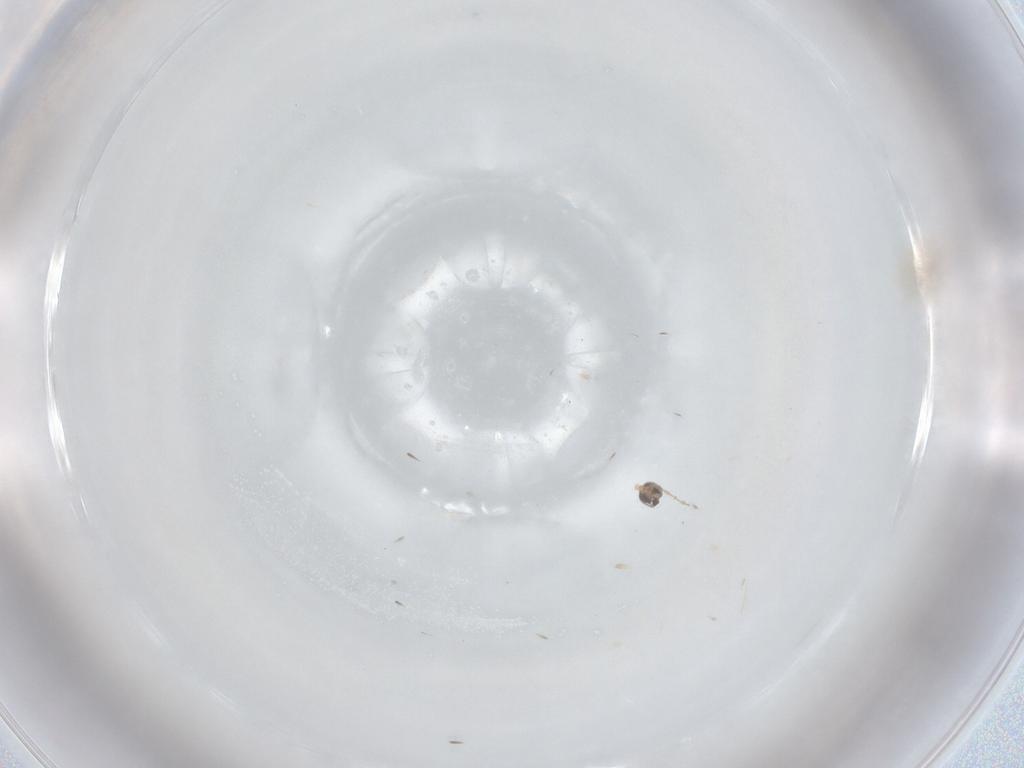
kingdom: Animalia
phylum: Arthropoda
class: Insecta
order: Diptera
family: Cecidomyiidae
